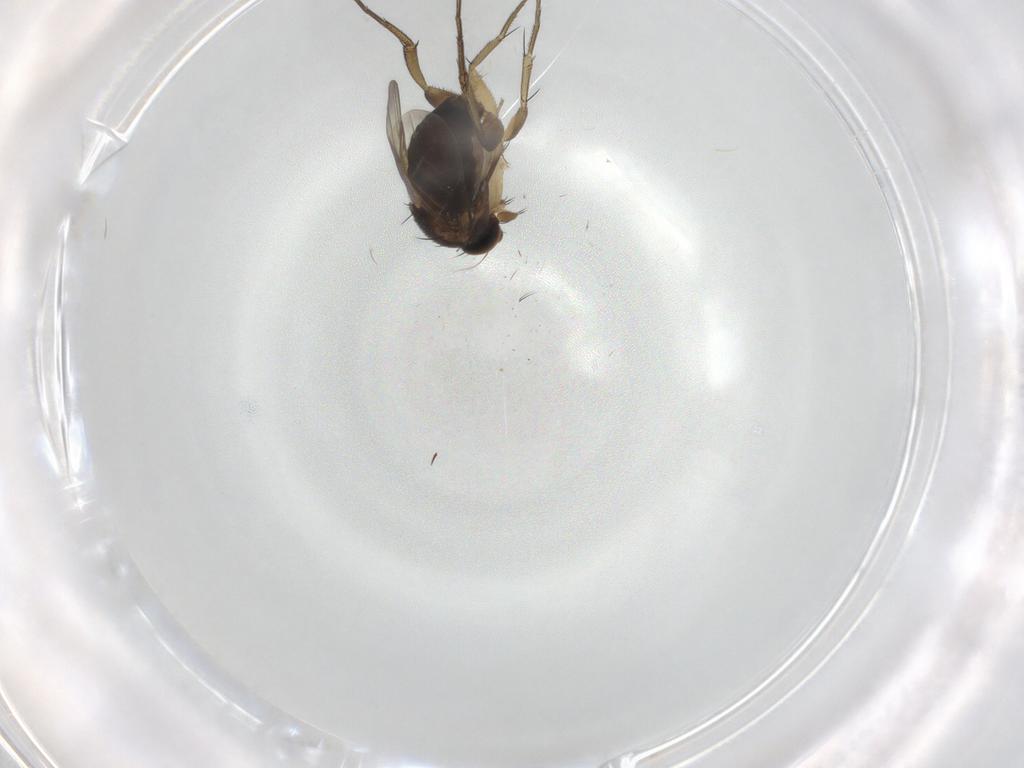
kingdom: Animalia
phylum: Arthropoda
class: Insecta
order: Diptera
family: Phoridae
